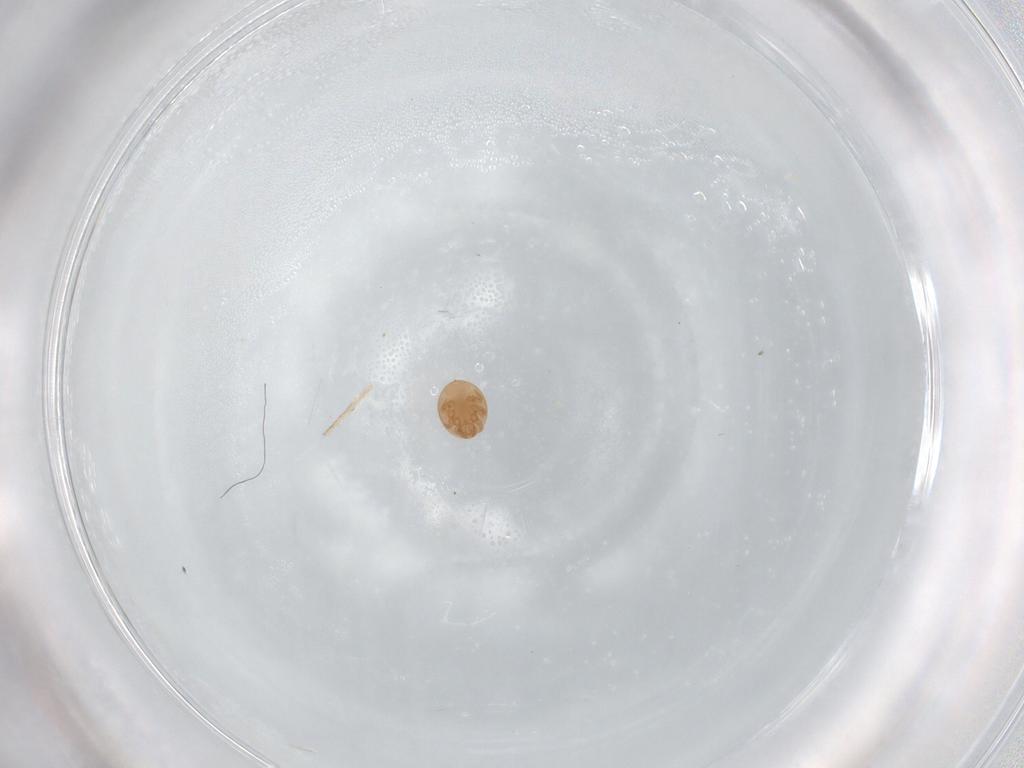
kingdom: Animalia
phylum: Arthropoda
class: Arachnida
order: Mesostigmata
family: Trematuridae
